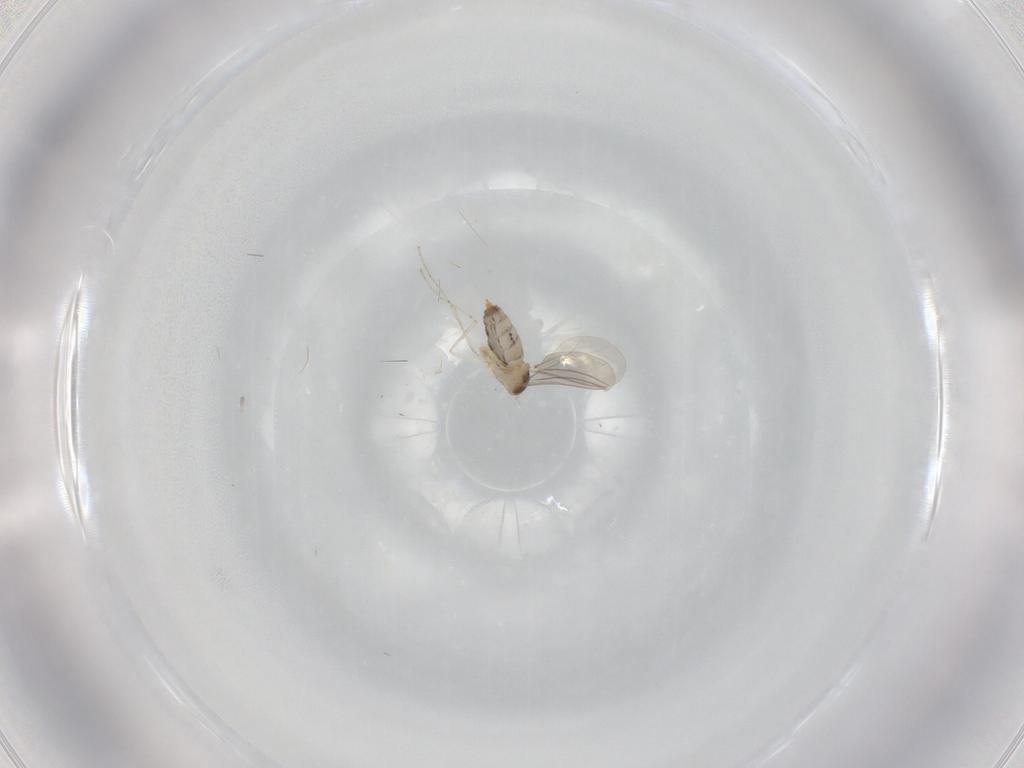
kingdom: Animalia
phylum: Arthropoda
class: Insecta
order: Diptera
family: Cecidomyiidae
